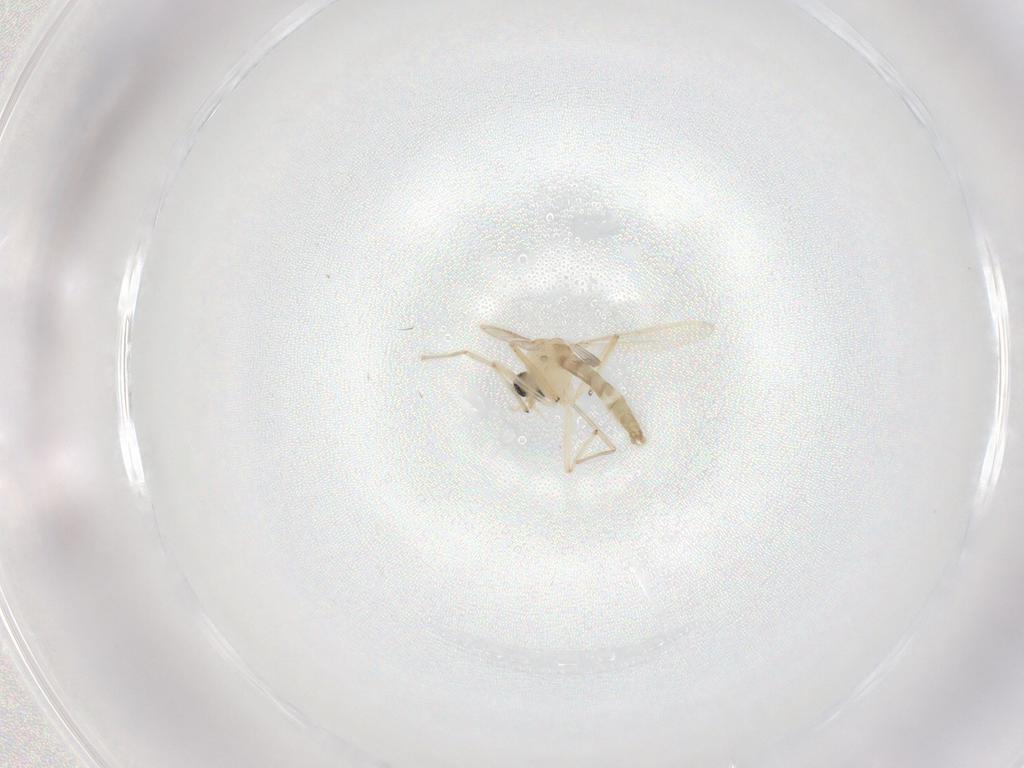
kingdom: Animalia
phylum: Arthropoda
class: Insecta
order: Diptera
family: Chironomidae
